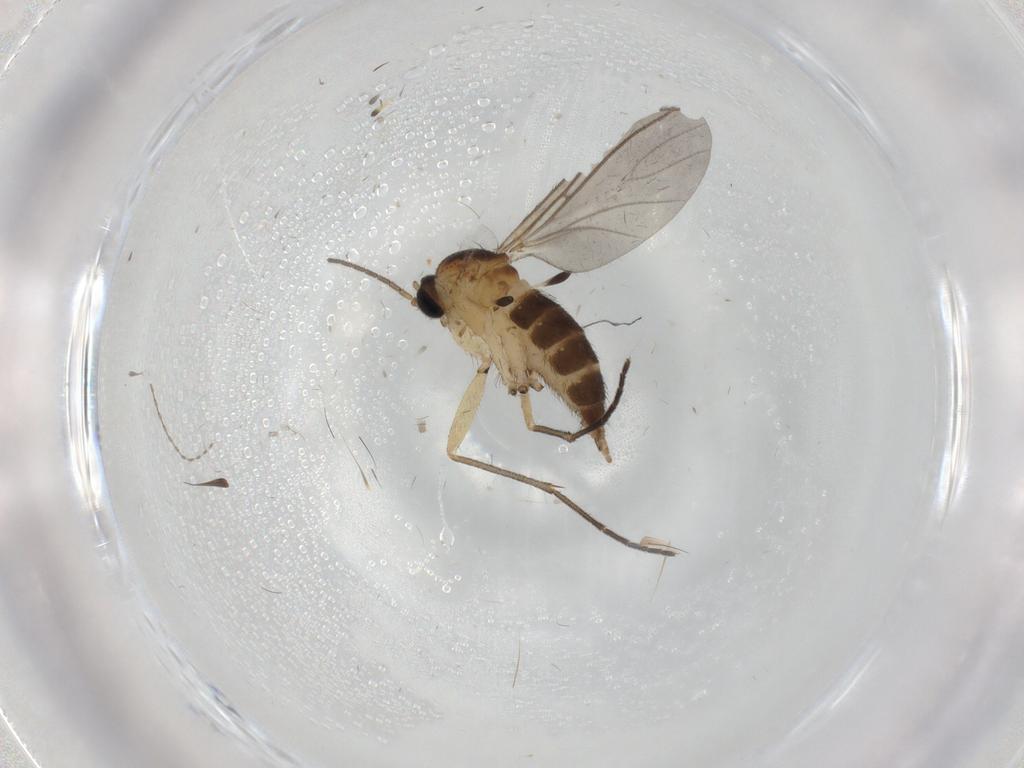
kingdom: Animalia
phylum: Arthropoda
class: Insecta
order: Diptera
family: Sciaridae
